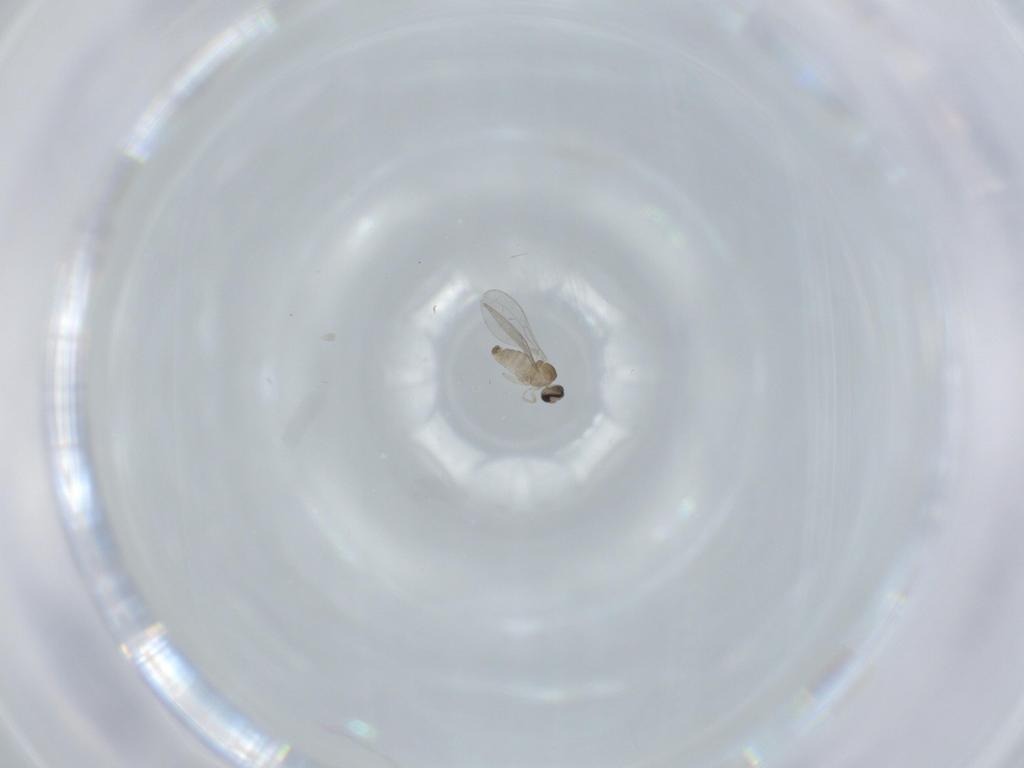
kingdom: Animalia
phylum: Arthropoda
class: Insecta
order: Diptera
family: Cecidomyiidae
